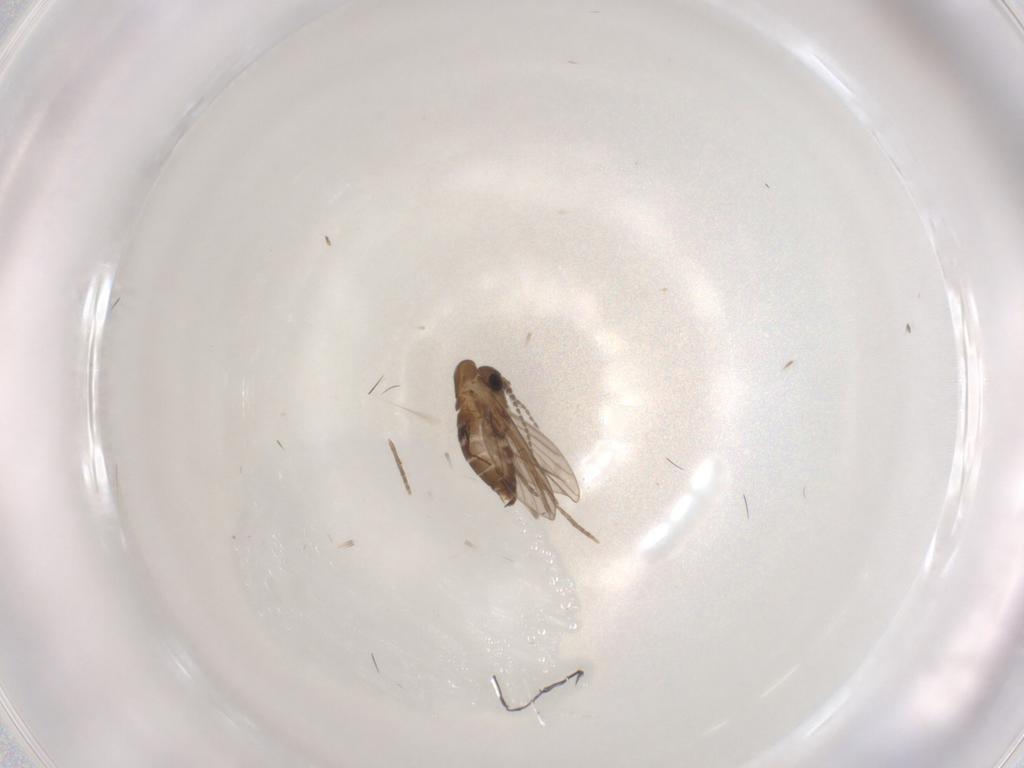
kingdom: Animalia
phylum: Arthropoda
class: Insecta
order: Diptera
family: Psychodidae
